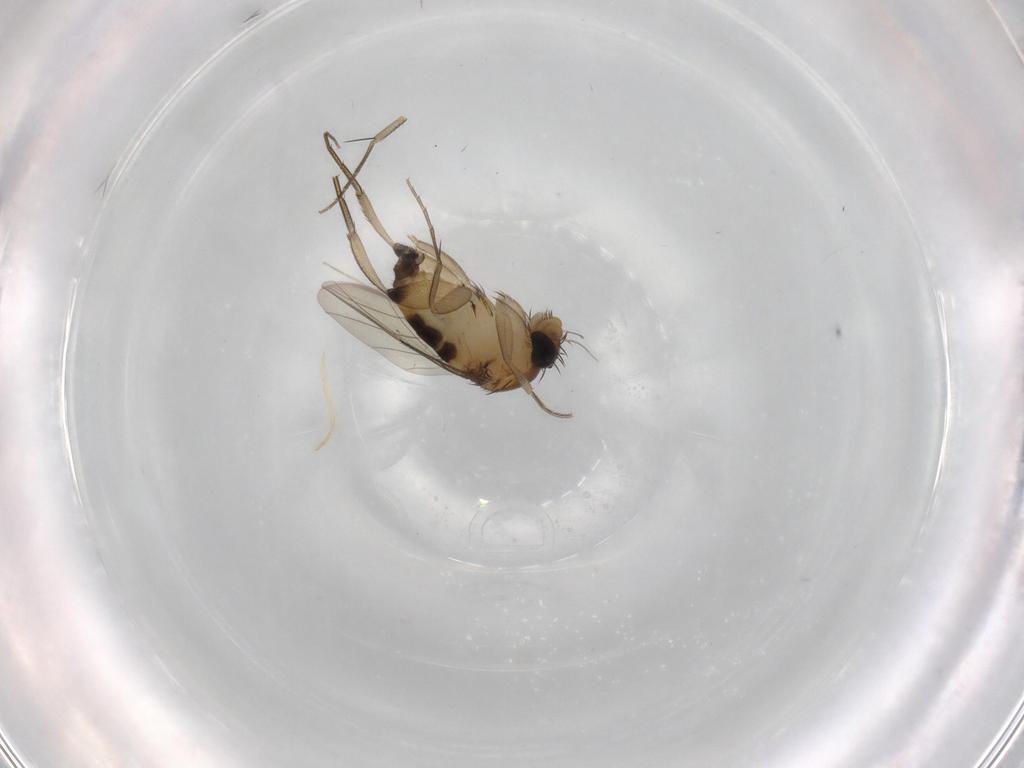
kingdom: Animalia
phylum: Arthropoda
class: Insecta
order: Diptera
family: Phoridae
